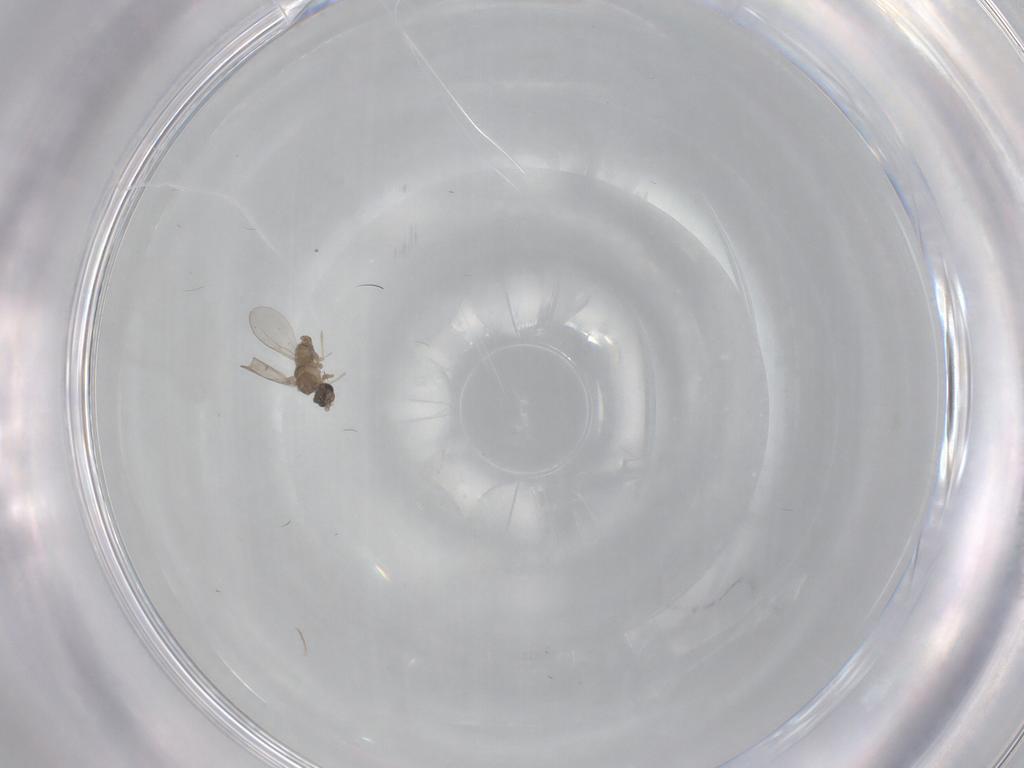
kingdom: Animalia
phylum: Arthropoda
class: Insecta
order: Diptera
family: Cecidomyiidae
